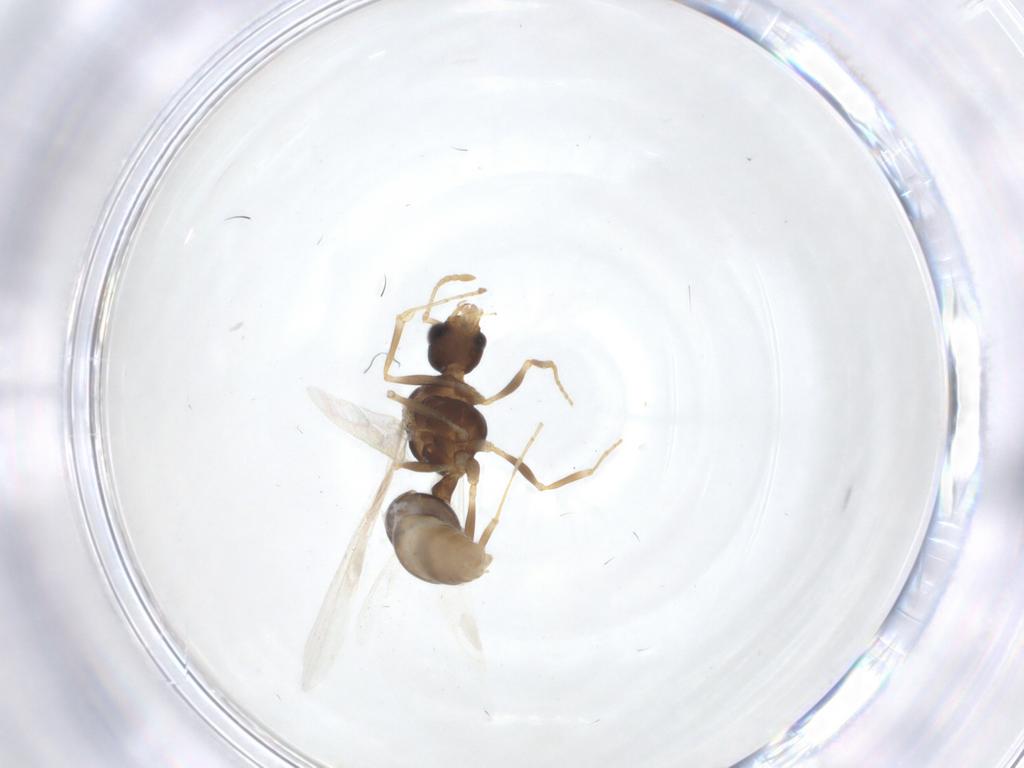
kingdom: Animalia
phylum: Arthropoda
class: Insecta
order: Hymenoptera
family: Formicidae
